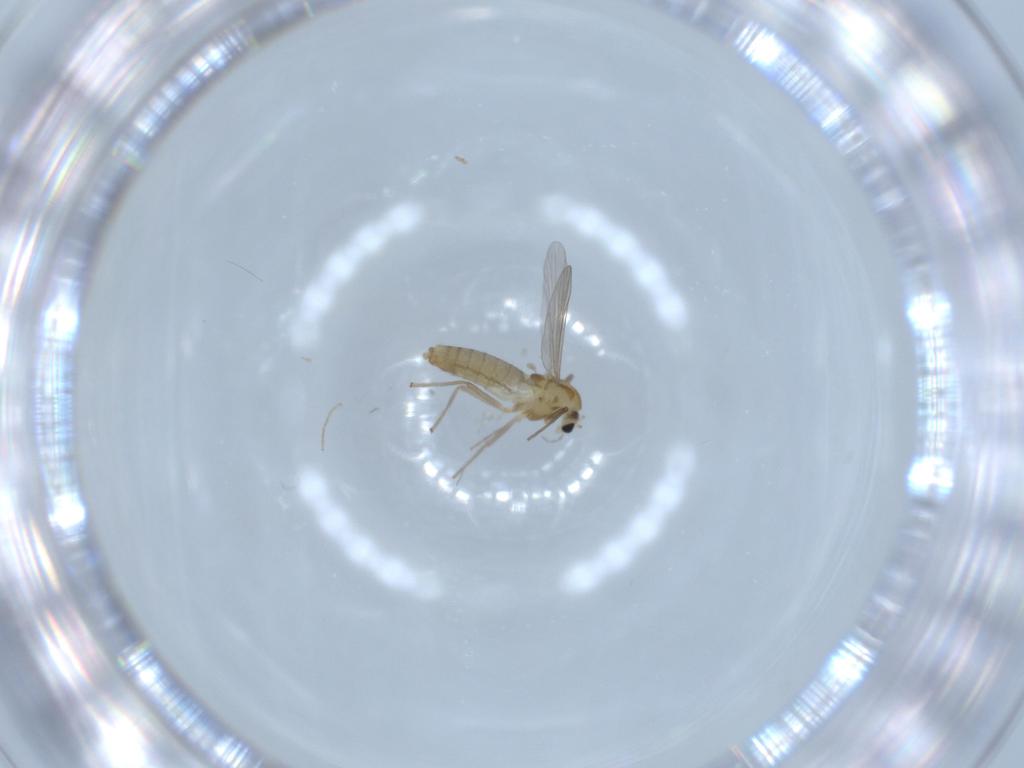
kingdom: Animalia
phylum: Arthropoda
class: Insecta
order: Diptera
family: Chironomidae
